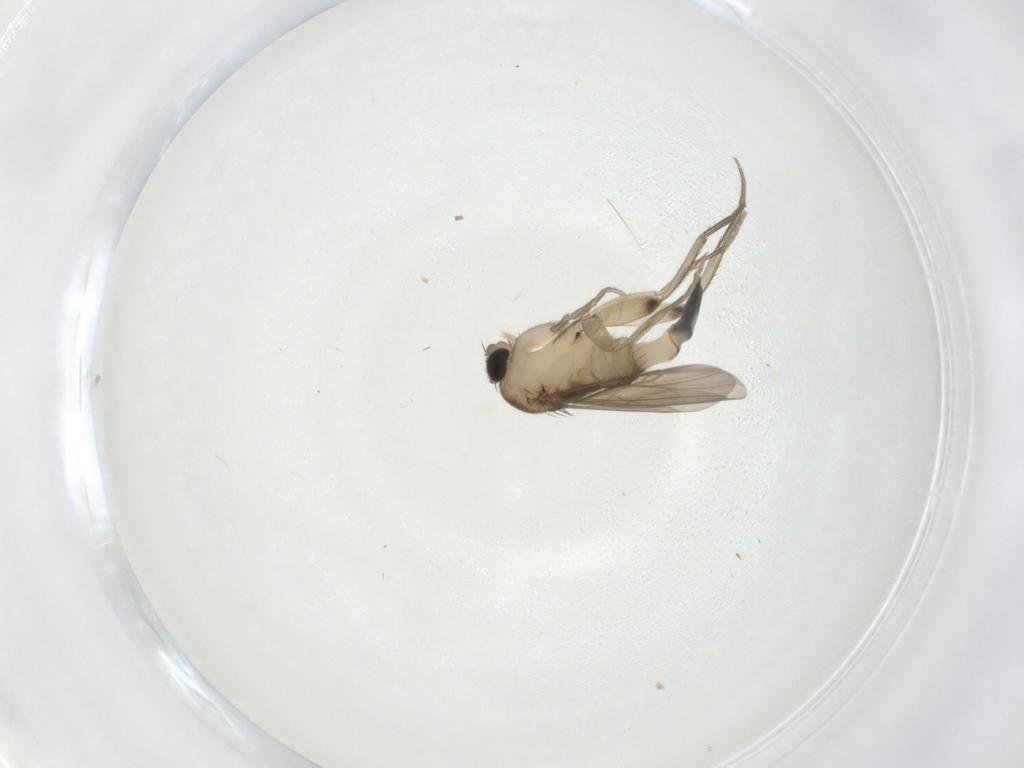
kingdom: Animalia
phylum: Arthropoda
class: Insecta
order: Diptera
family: Phoridae
